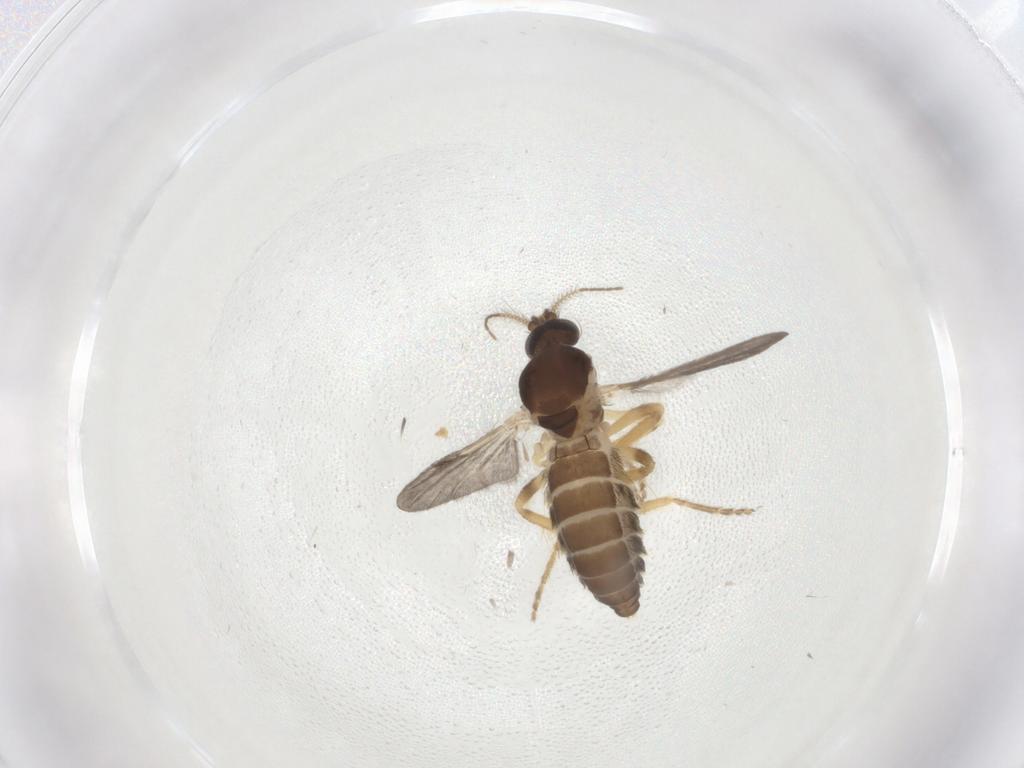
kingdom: Animalia
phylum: Arthropoda
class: Insecta
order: Diptera
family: Ceratopogonidae
